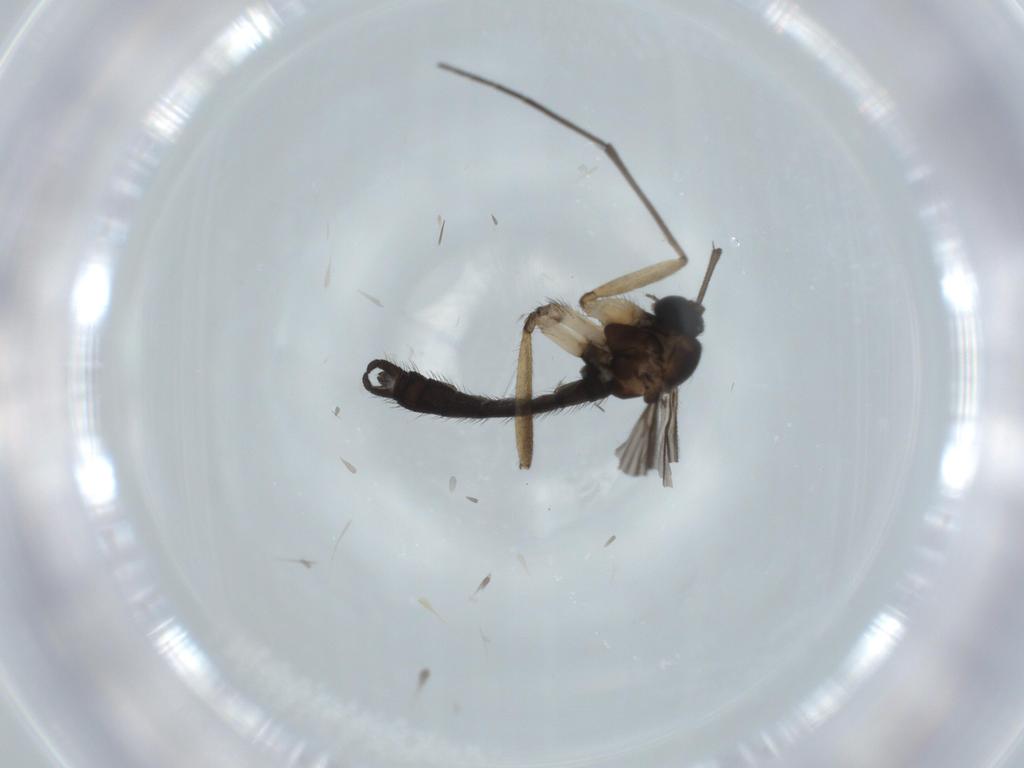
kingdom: Animalia
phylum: Arthropoda
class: Insecta
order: Diptera
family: Sciaridae
